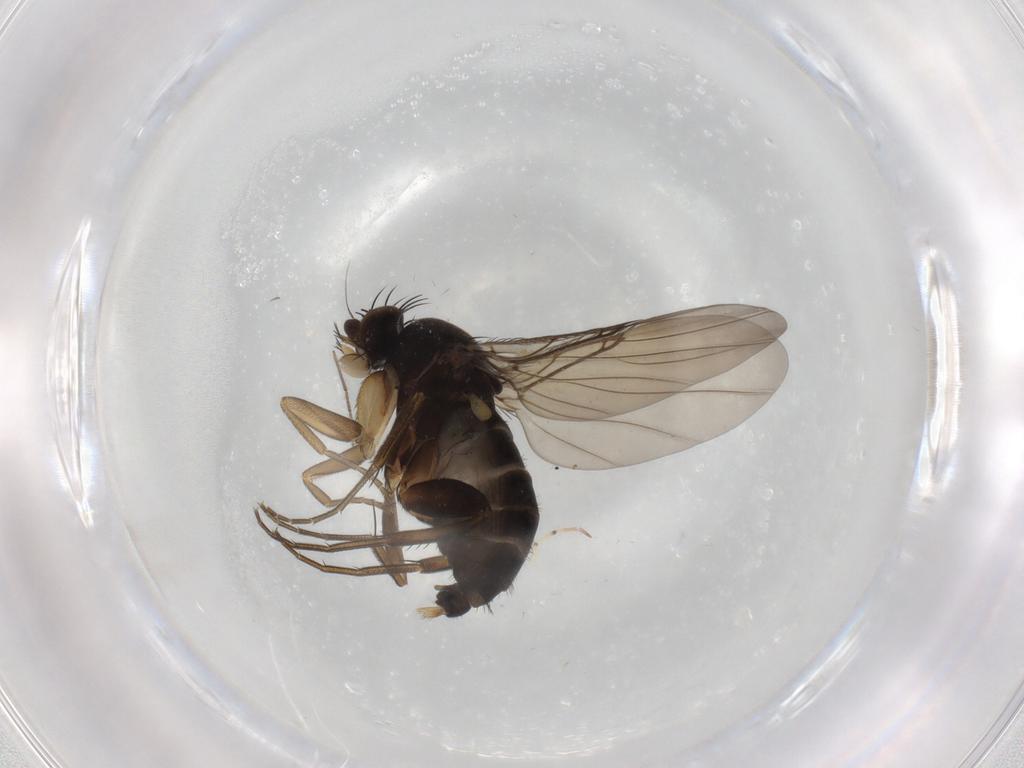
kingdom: Animalia
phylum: Arthropoda
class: Insecta
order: Diptera
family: Phoridae
